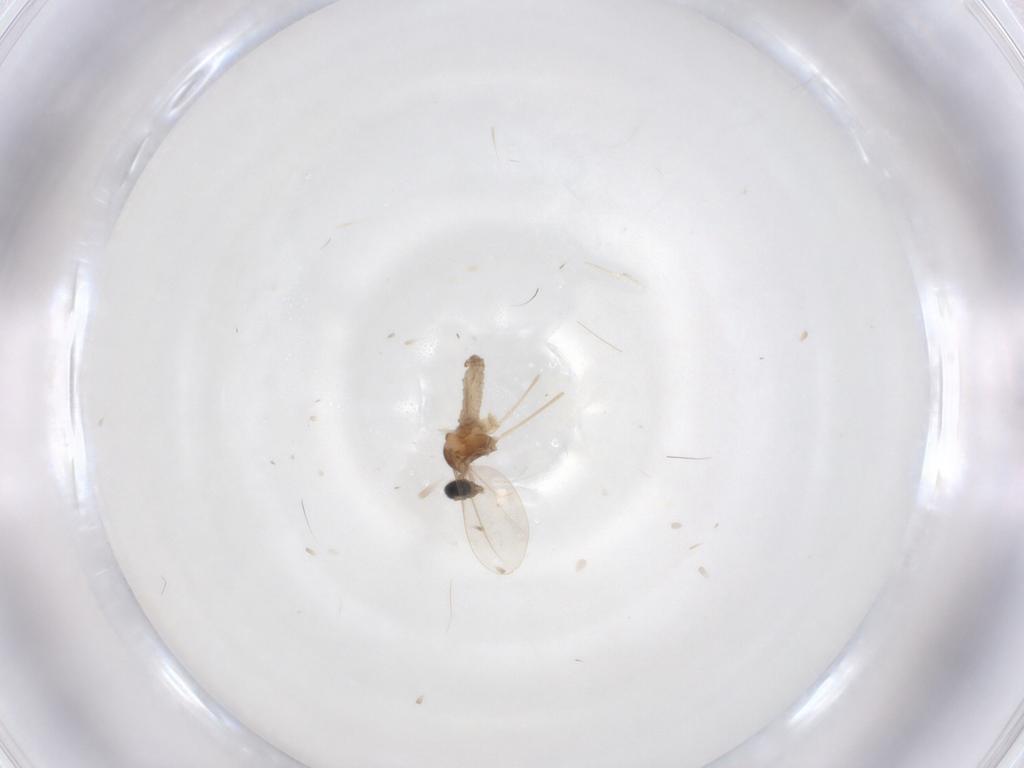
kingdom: Animalia
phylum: Arthropoda
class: Insecta
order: Diptera
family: Cecidomyiidae
